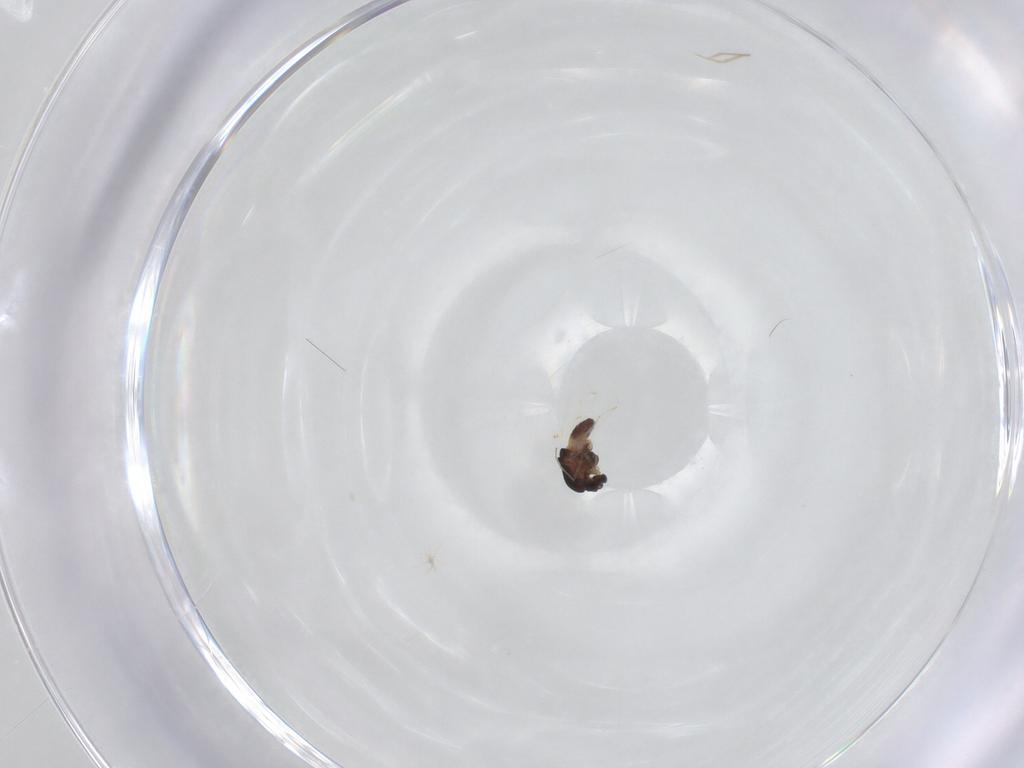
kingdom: Animalia
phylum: Arthropoda
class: Insecta
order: Diptera
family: Chironomidae
